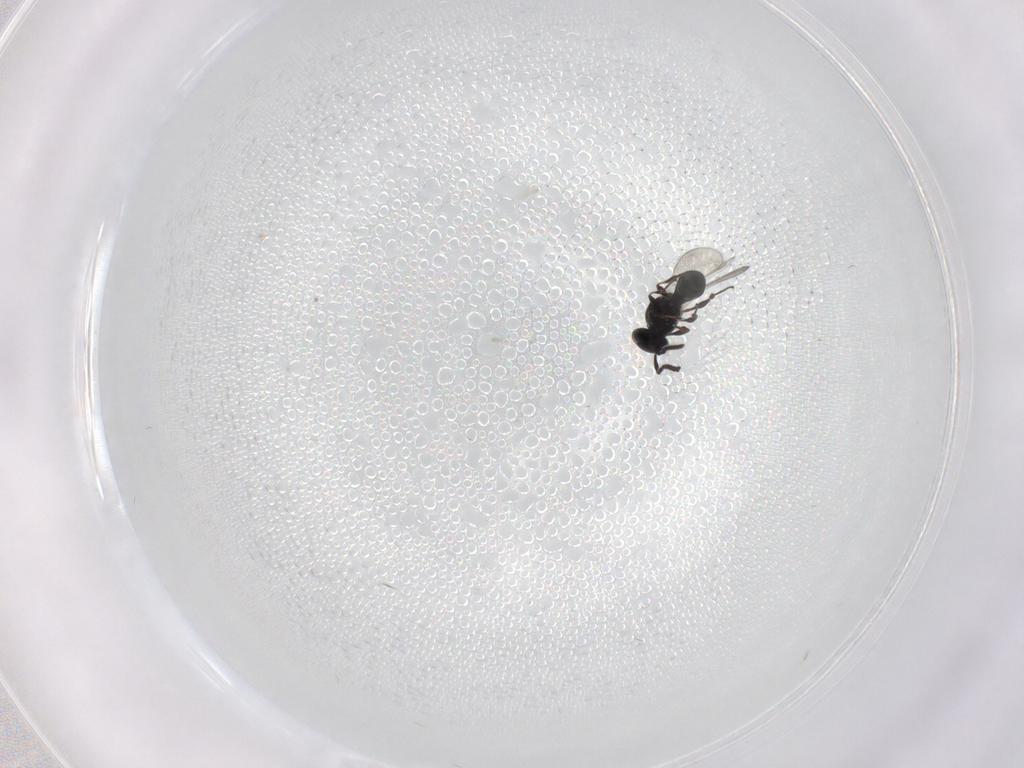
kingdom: Animalia
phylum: Arthropoda
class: Insecta
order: Hymenoptera
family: Platygastridae
